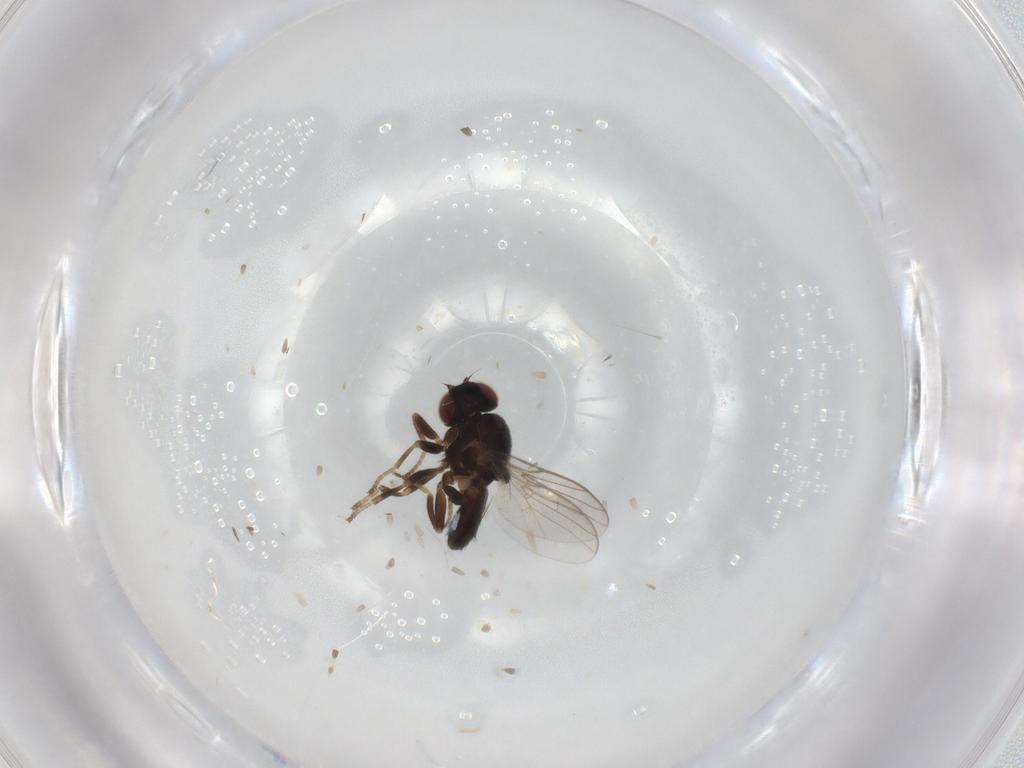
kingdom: Animalia
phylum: Arthropoda
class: Insecta
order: Diptera
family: Chloropidae
